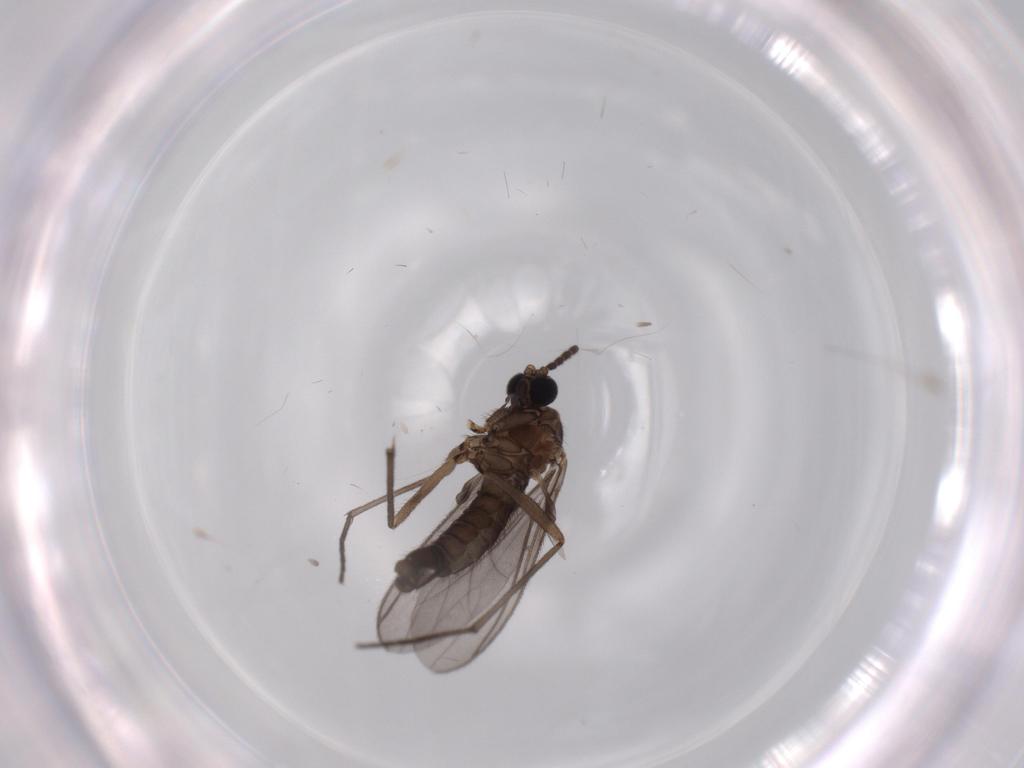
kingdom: Animalia
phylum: Arthropoda
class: Insecta
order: Diptera
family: Sciaridae
